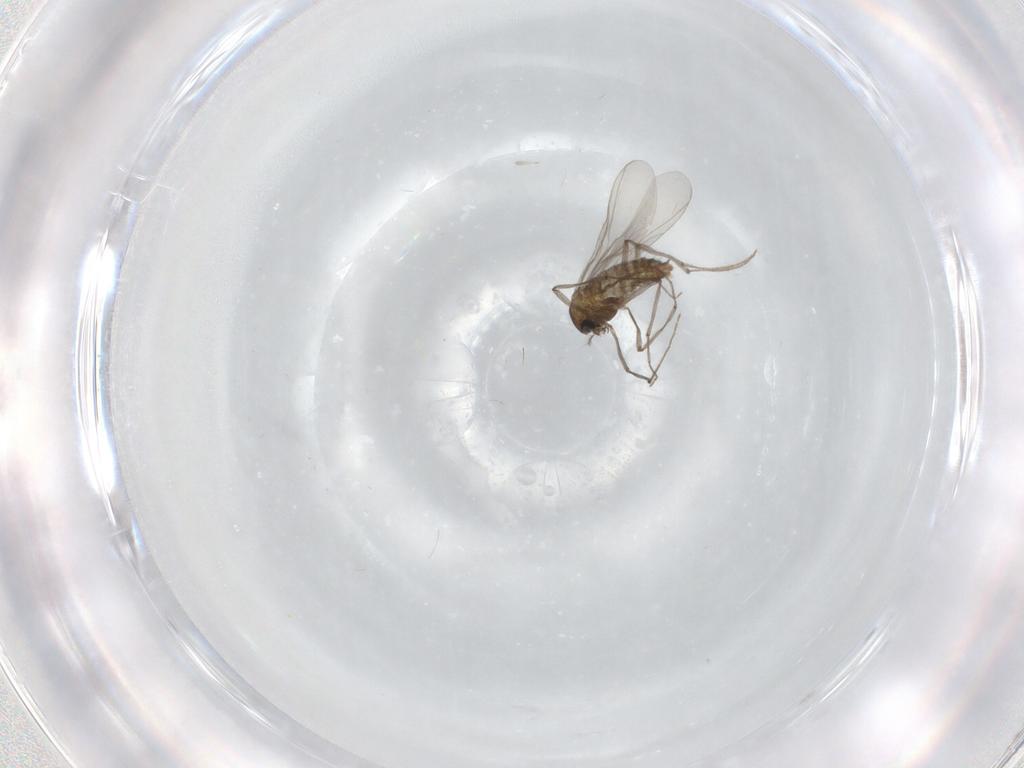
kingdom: Animalia
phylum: Arthropoda
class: Insecta
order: Diptera
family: Chironomidae
